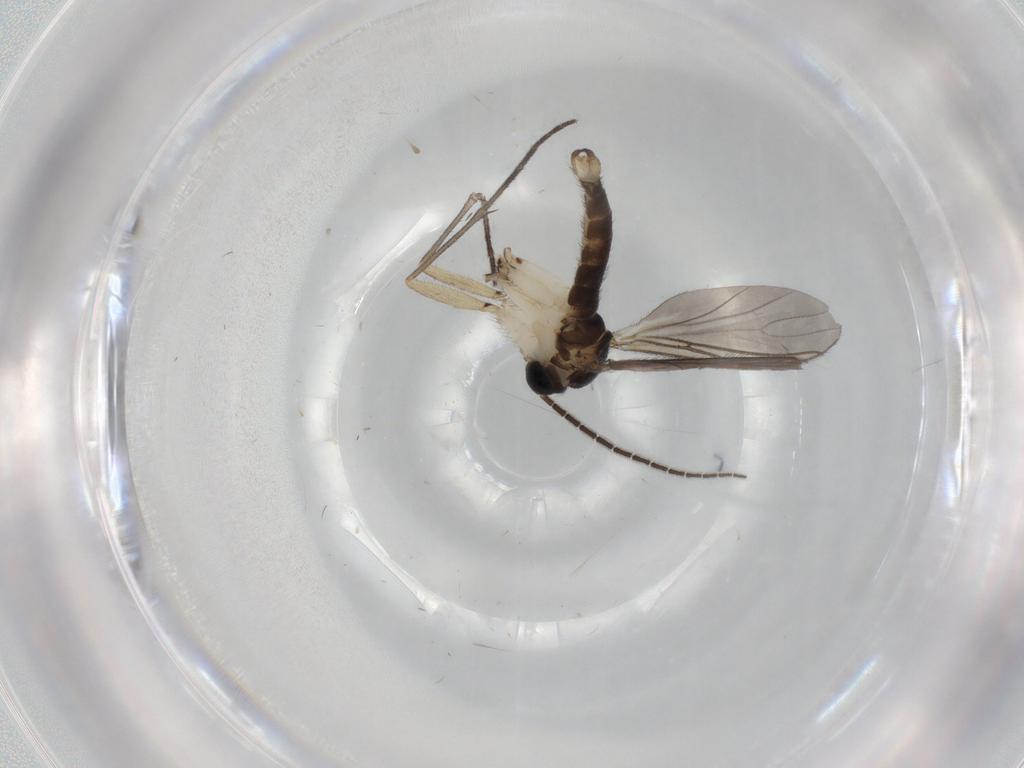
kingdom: Animalia
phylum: Arthropoda
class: Insecta
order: Diptera
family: Sciaridae
